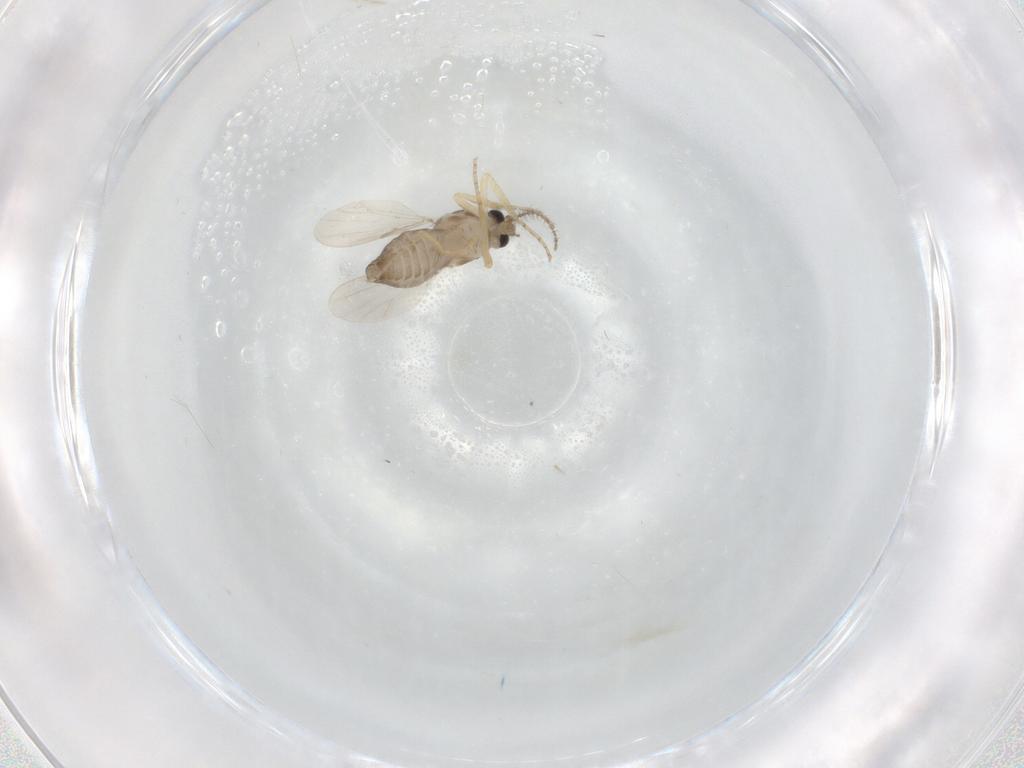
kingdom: Animalia
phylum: Arthropoda
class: Insecta
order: Diptera
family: Ceratopogonidae
